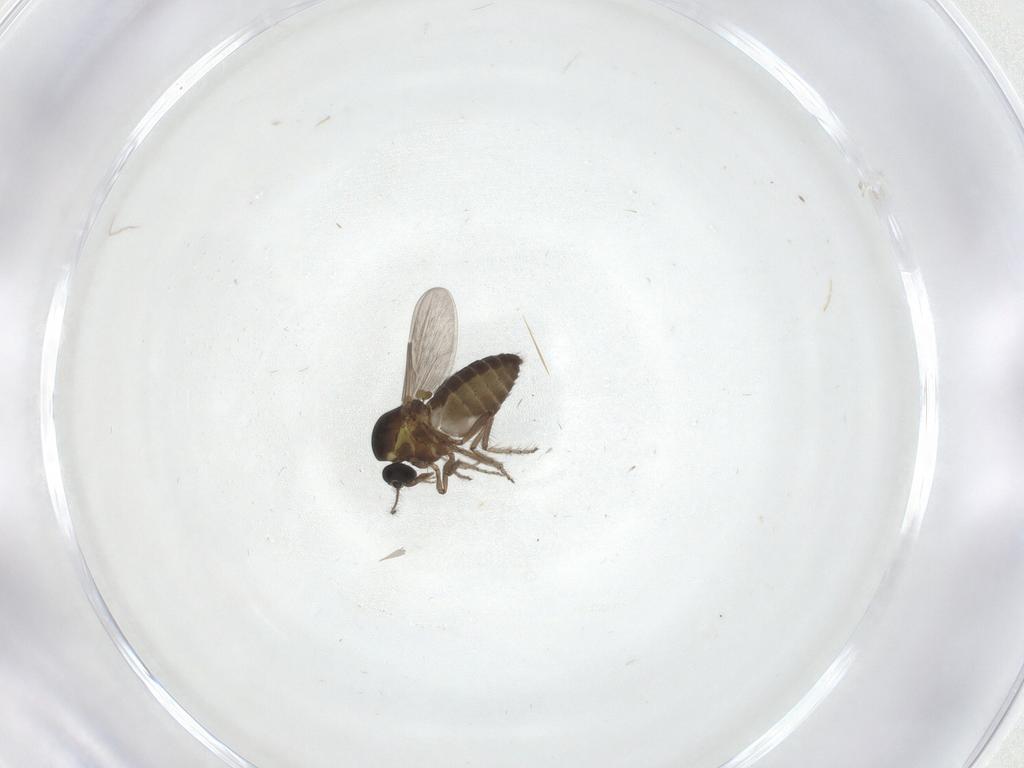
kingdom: Animalia
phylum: Arthropoda
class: Insecta
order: Diptera
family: Ceratopogonidae
